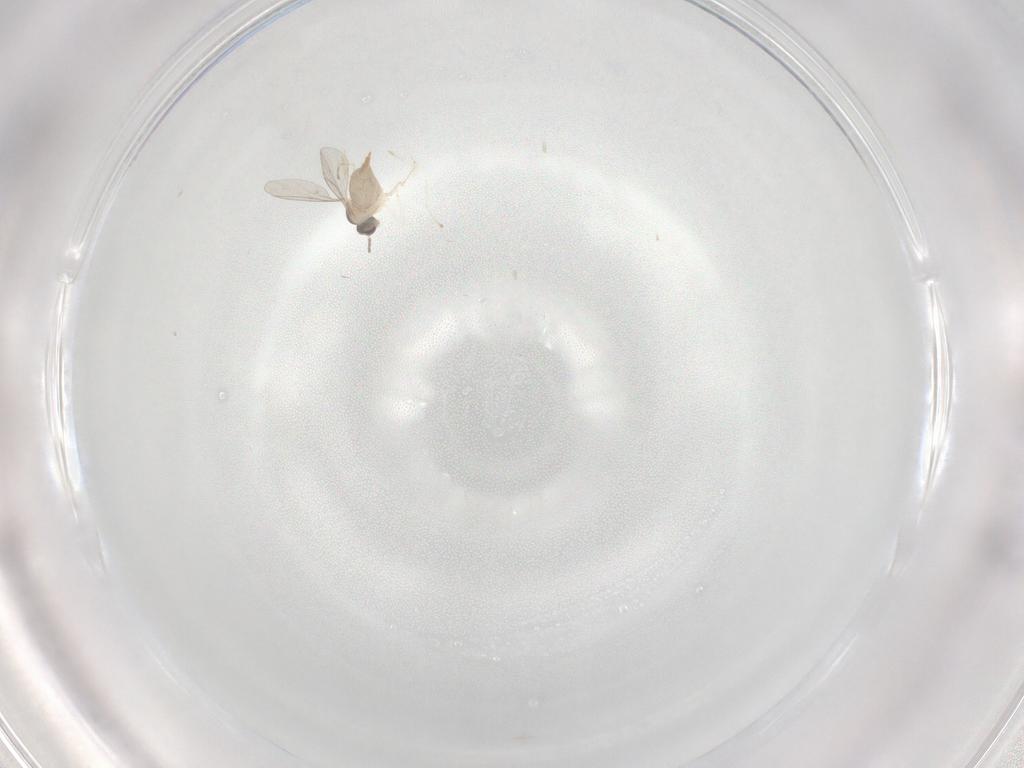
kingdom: Animalia
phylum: Arthropoda
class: Insecta
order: Diptera
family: Cecidomyiidae
